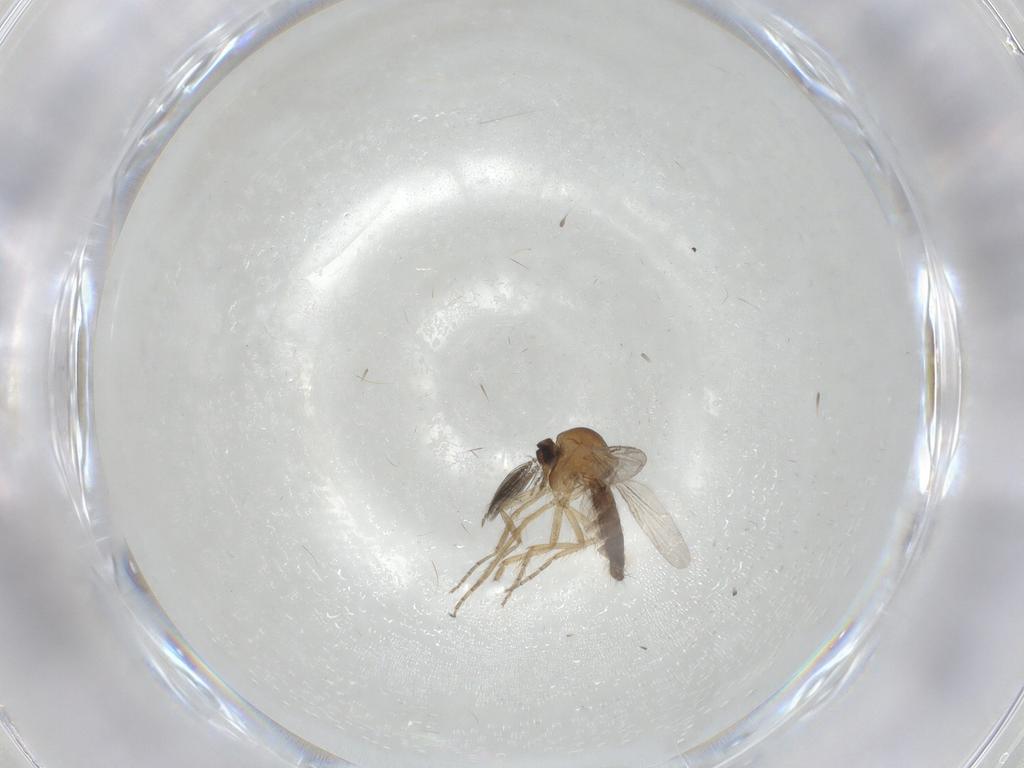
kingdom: Animalia
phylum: Arthropoda
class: Insecta
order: Diptera
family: Ceratopogonidae
